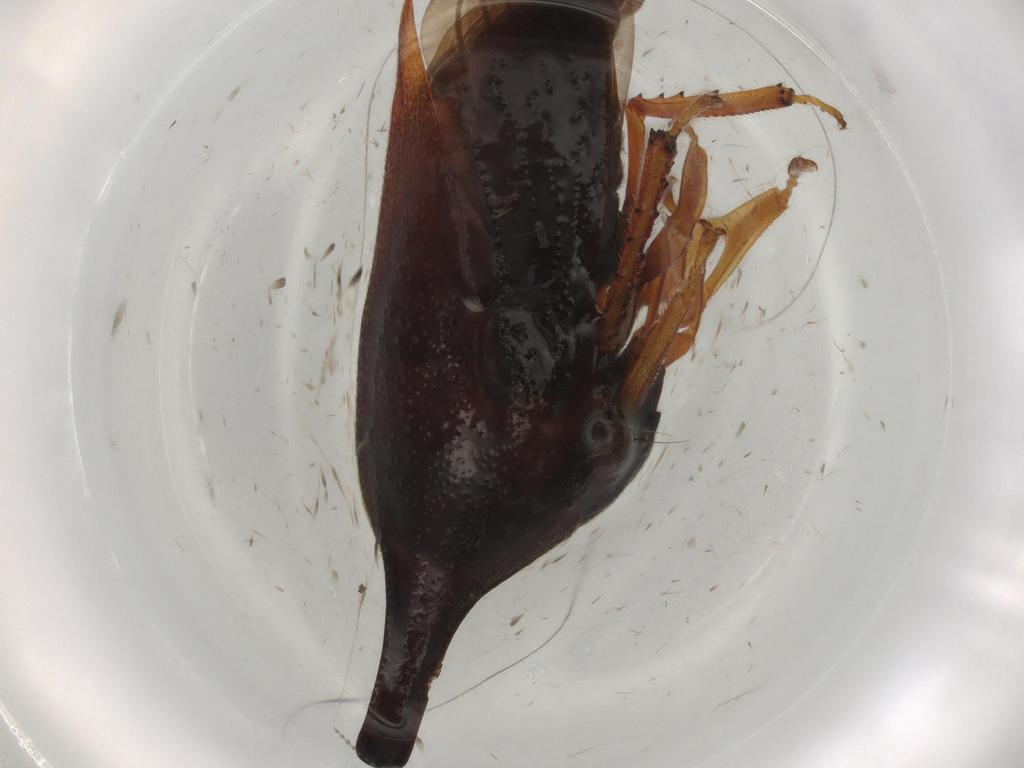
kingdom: Animalia
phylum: Arthropoda
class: Insecta
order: Hemiptera
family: Membracidae
